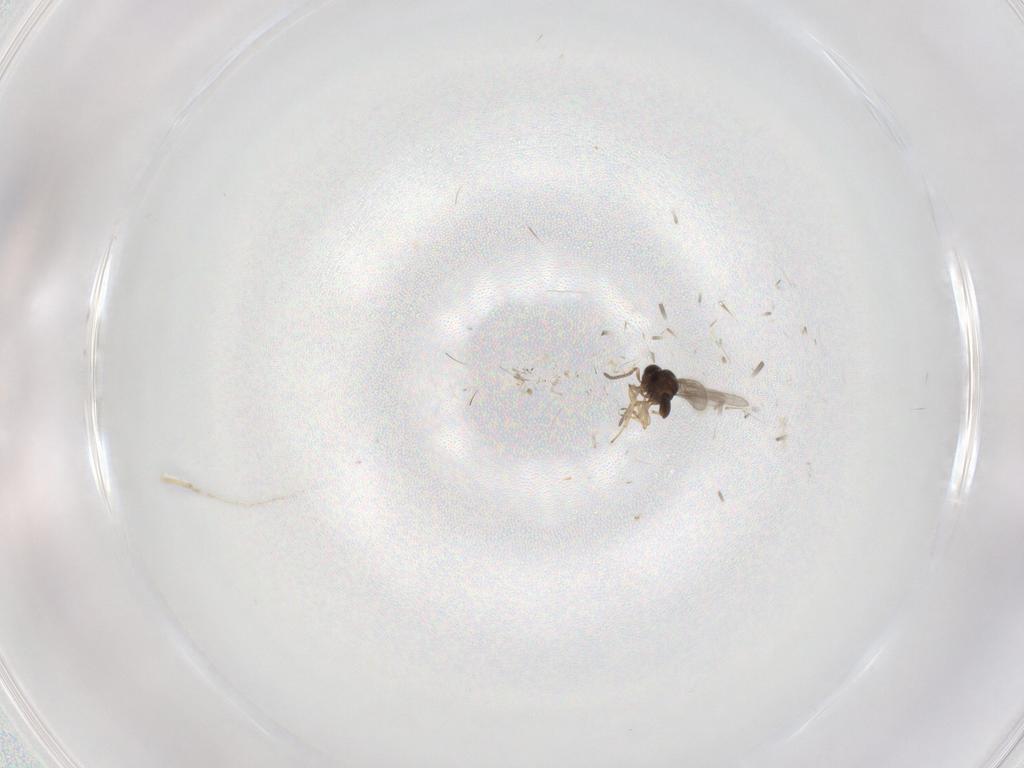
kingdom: Animalia
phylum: Arthropoda
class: Insecta
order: Hymenoptera
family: Scelionidae
